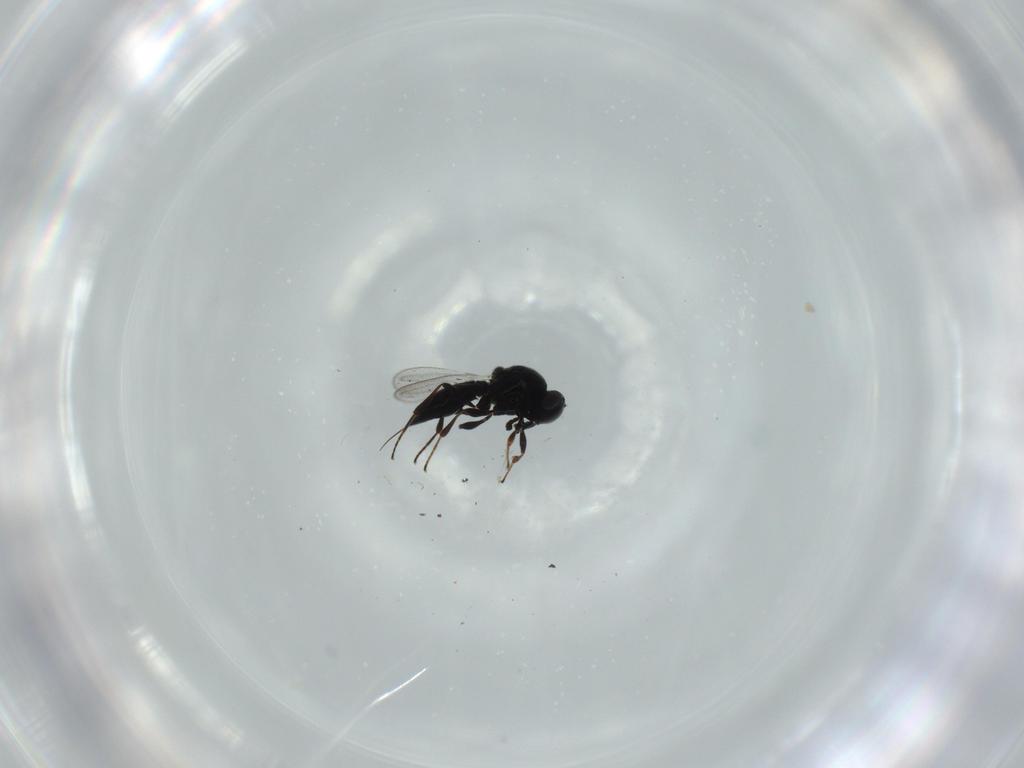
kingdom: Animalia
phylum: Arthropoda
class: Insecta
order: Hymenoptera
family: Platygastridae
